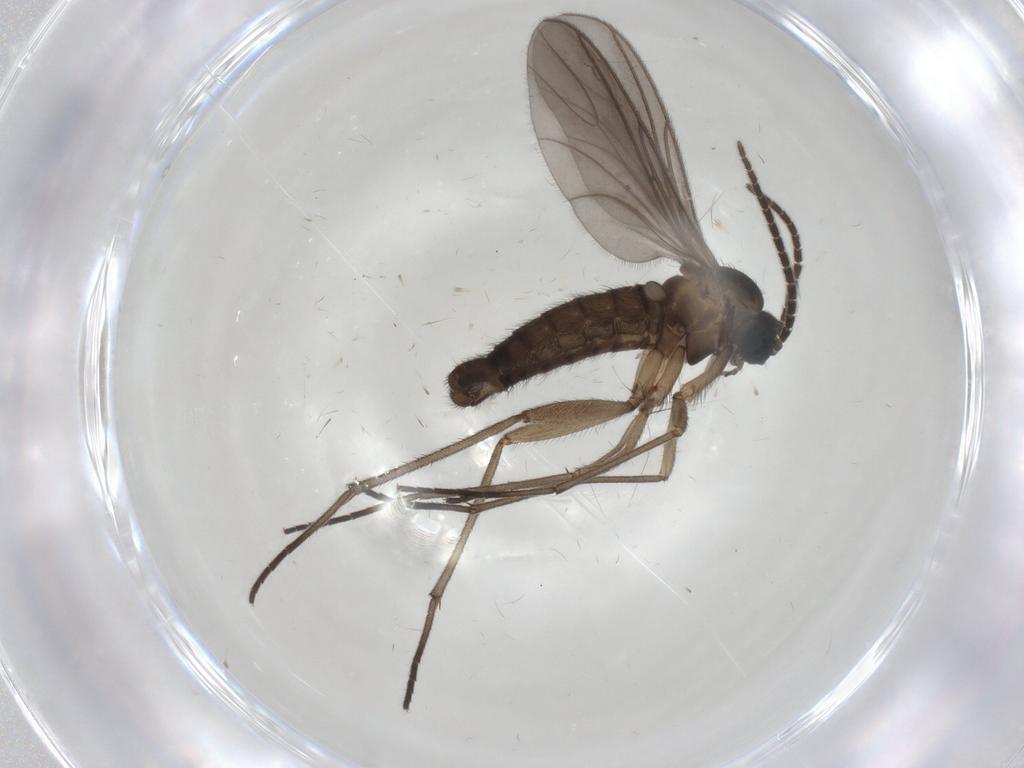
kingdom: Animalia
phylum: Arthropoda
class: Insecta
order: Diptera
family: Sciaridae
